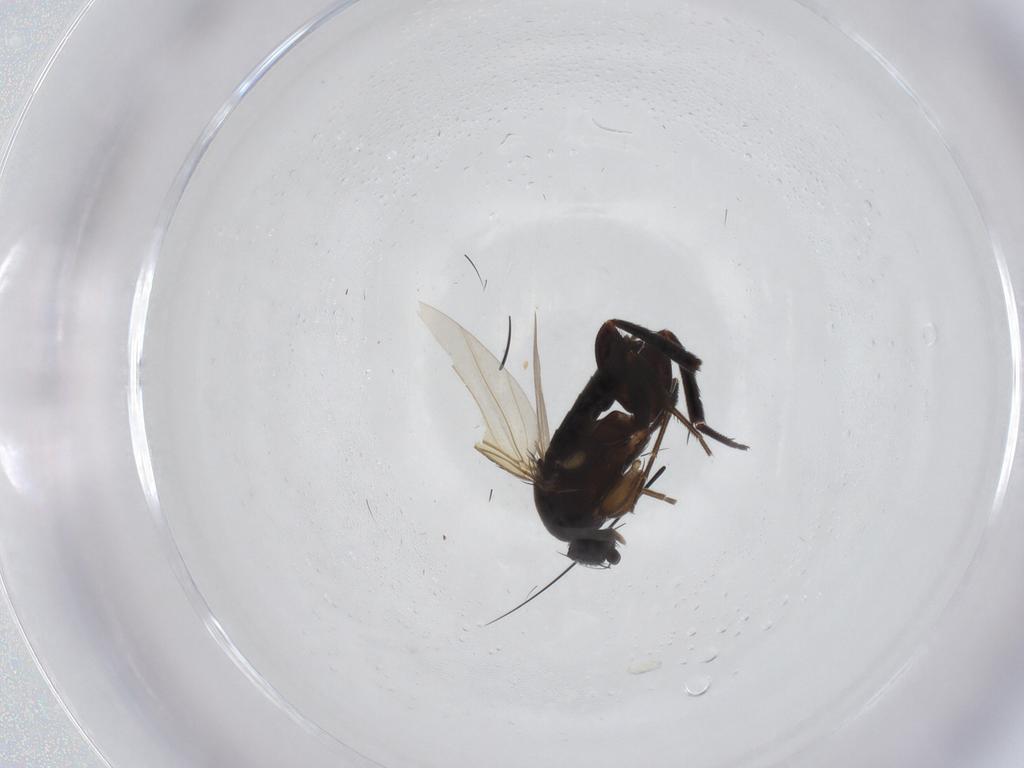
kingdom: Animalia
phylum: Arthropoda
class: Insecta
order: Diptera
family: Phoridae
